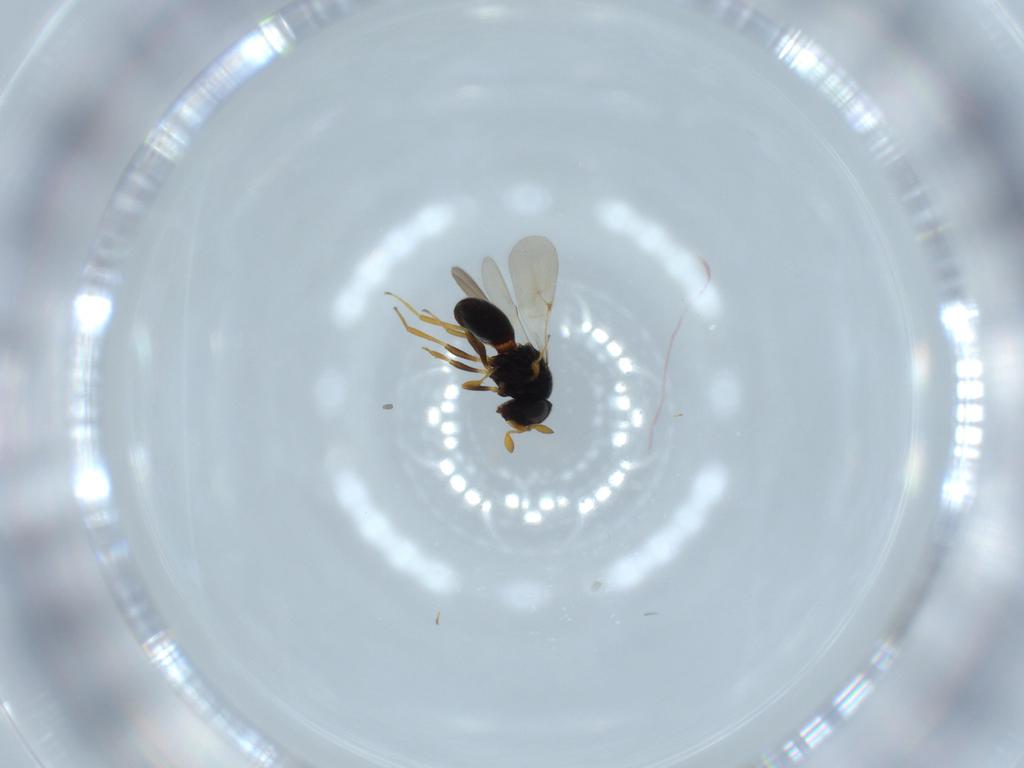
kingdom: Animalia
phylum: Arthropoda
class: Insecta
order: Hymenoptera
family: Scelionidae
